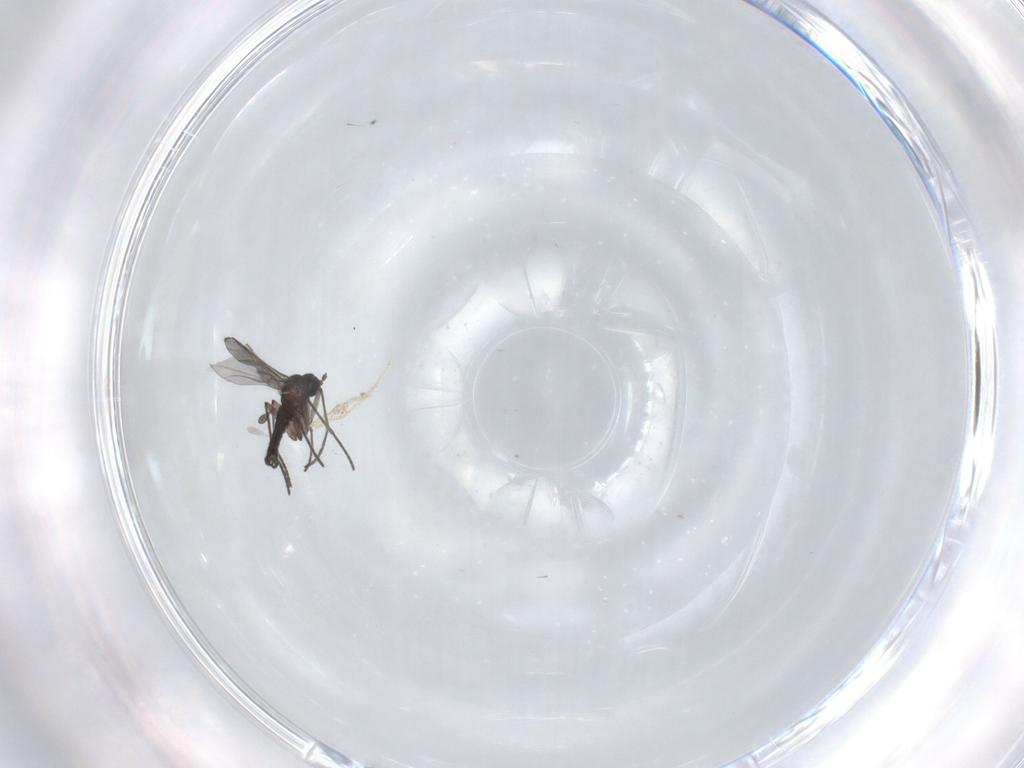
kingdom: Animalia
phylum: Arthropoda
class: Insecta
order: Diptera
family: Sciaridae
